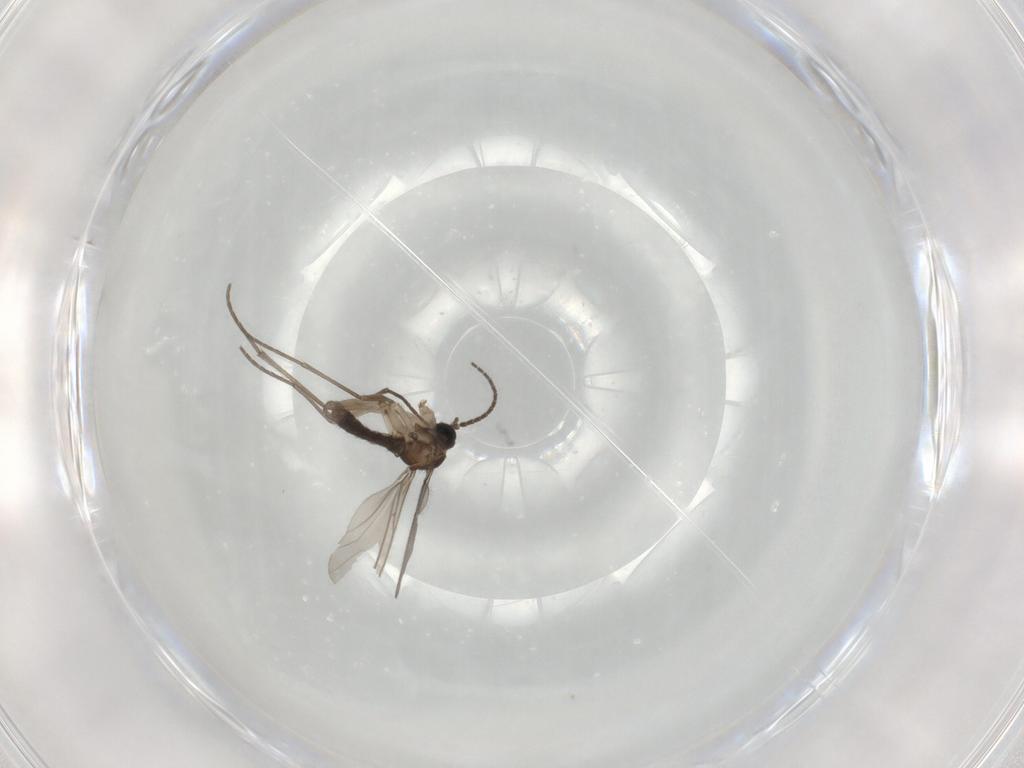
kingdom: Animalia
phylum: Arthropoda
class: Insecta
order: Diptera
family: Sciaridae
